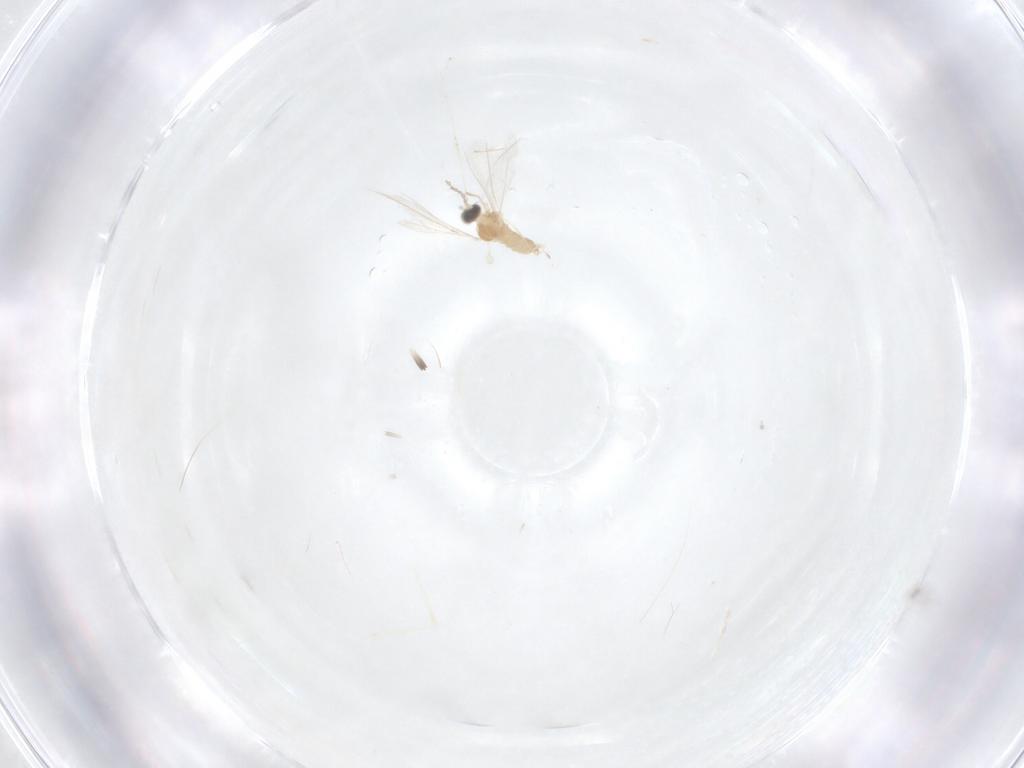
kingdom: Animalia
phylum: Arthropoda
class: Insecta
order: Diptera
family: Cecidomyiidae
